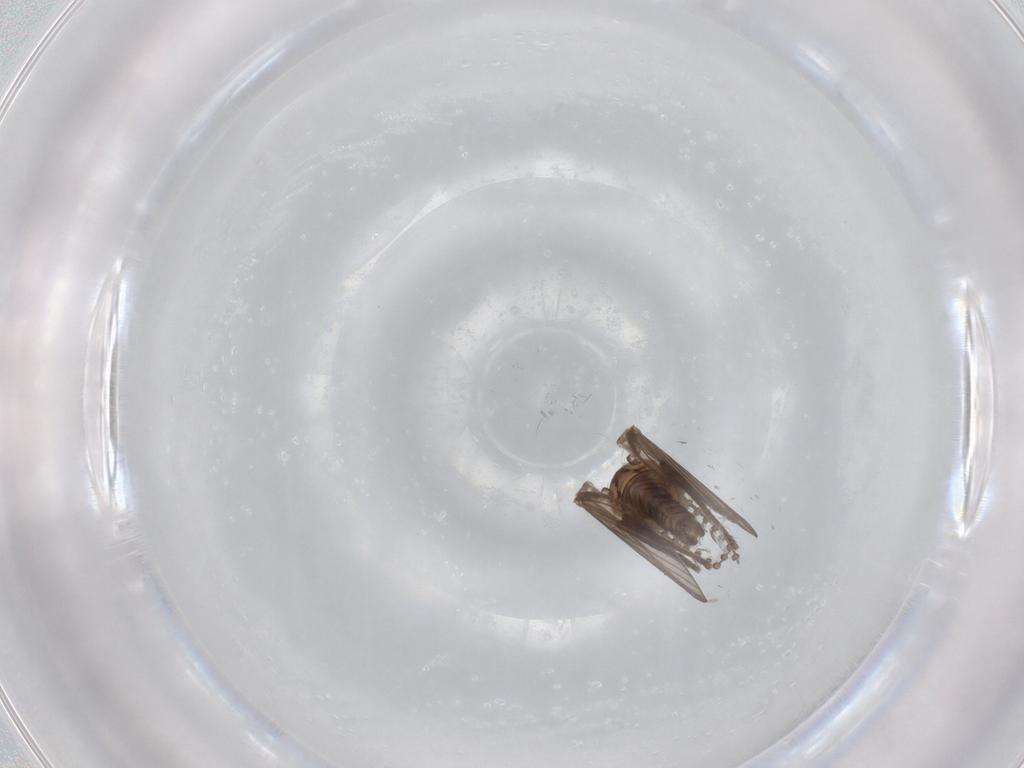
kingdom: Animalia
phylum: Arthropoda
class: Insecta
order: Diptera
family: Psychodidae
